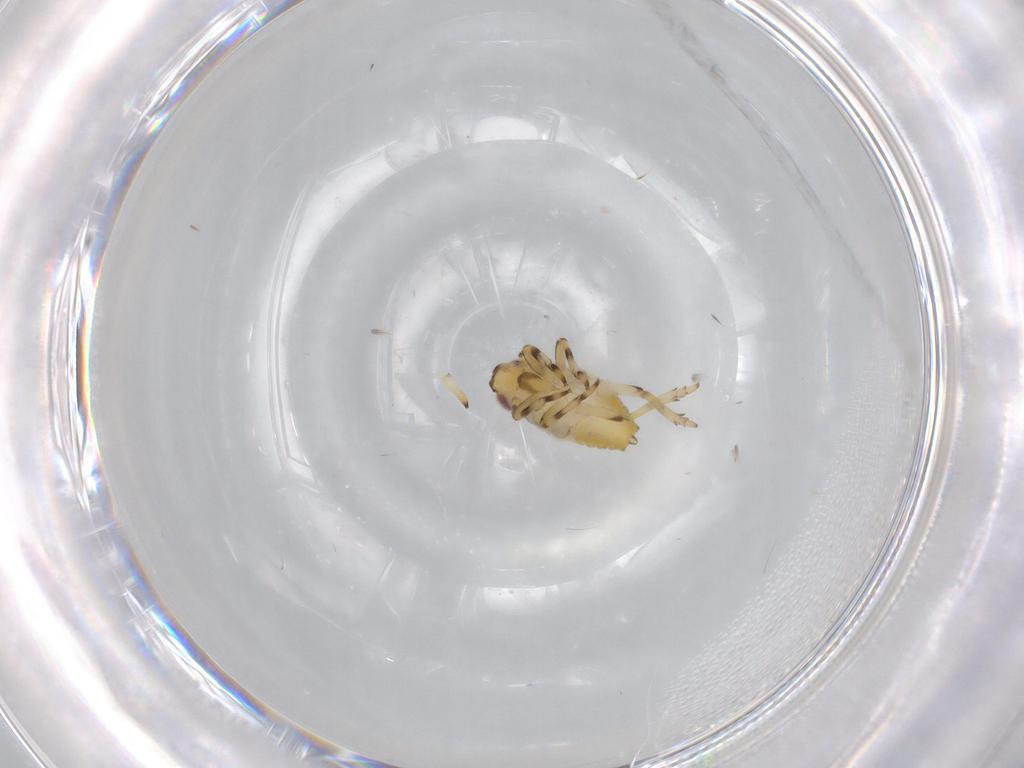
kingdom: Animalia
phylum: Arthropoda
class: Insecta
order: Hemiptera
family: Issidae
